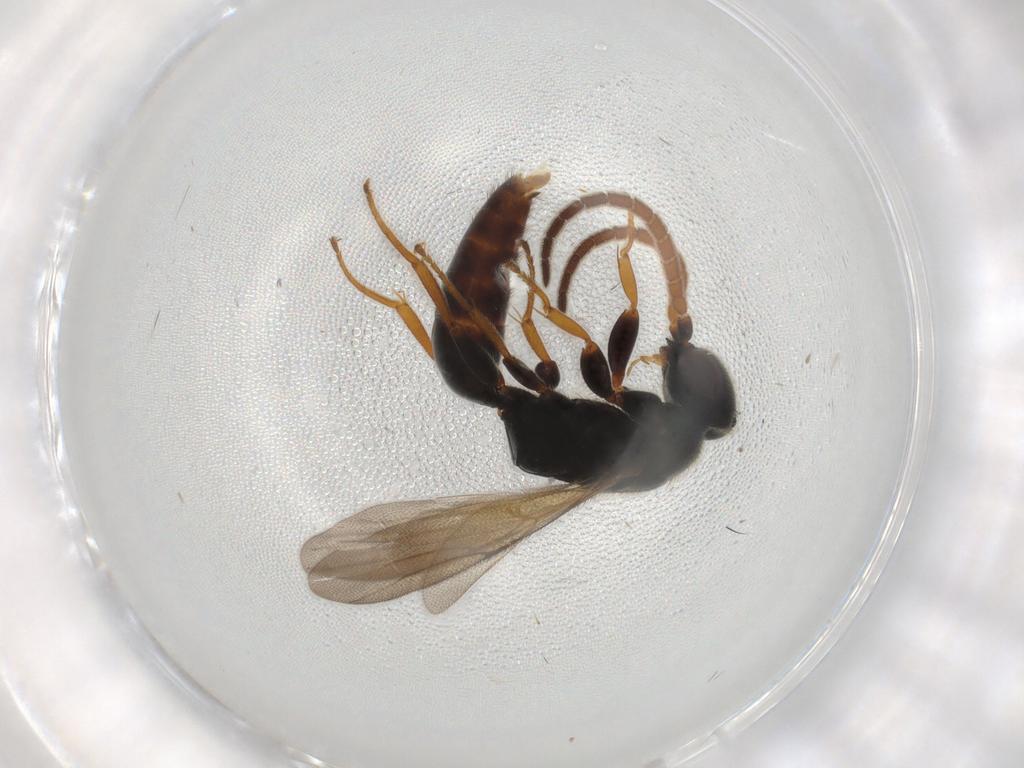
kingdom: Animalia
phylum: Arthropoda
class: Insecta
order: Hymenoptera
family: Bethylidae
